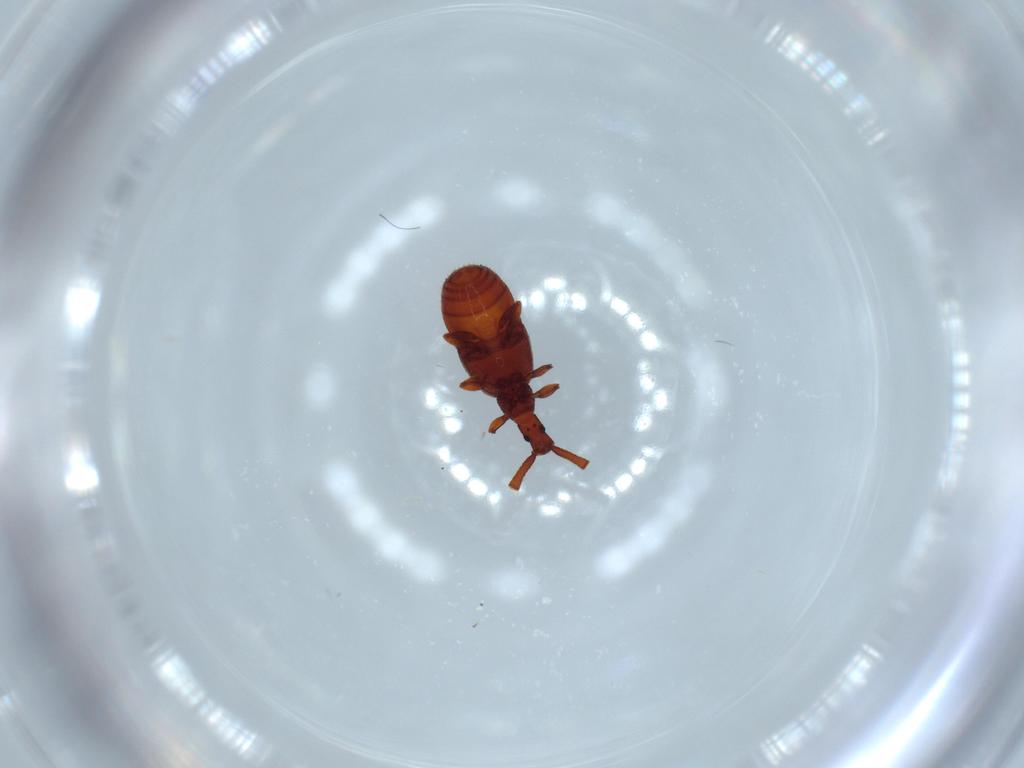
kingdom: Animalia
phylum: Arthropoda
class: Insecta
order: Coleoptera
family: Staphylinidae
